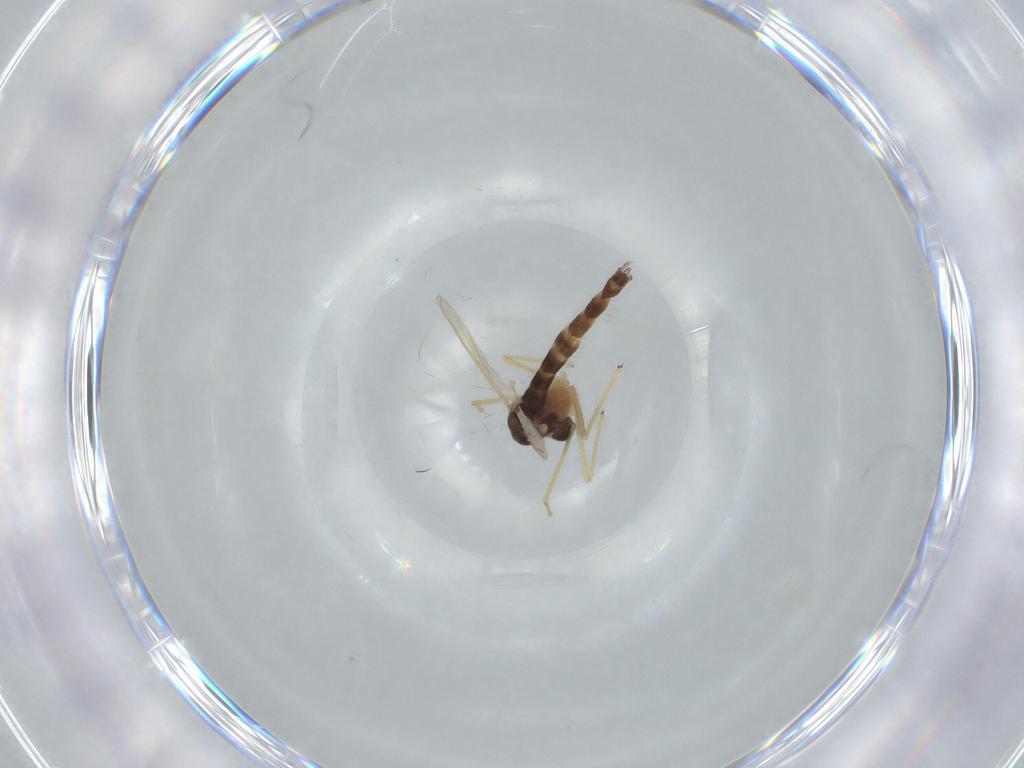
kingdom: Animalia
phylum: Arthropoda
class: Insecta
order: Diptera
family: Chironomidae
